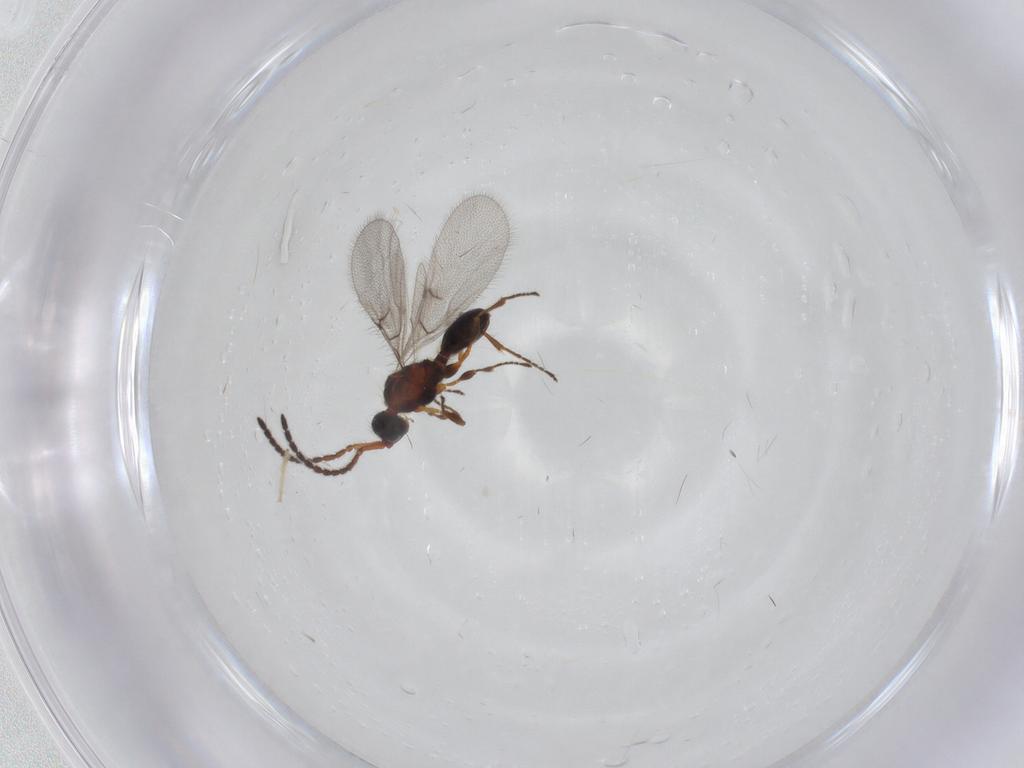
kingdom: Animalia
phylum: Arthropoda
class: Insecta
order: Hymenoptera
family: Diapriidae
